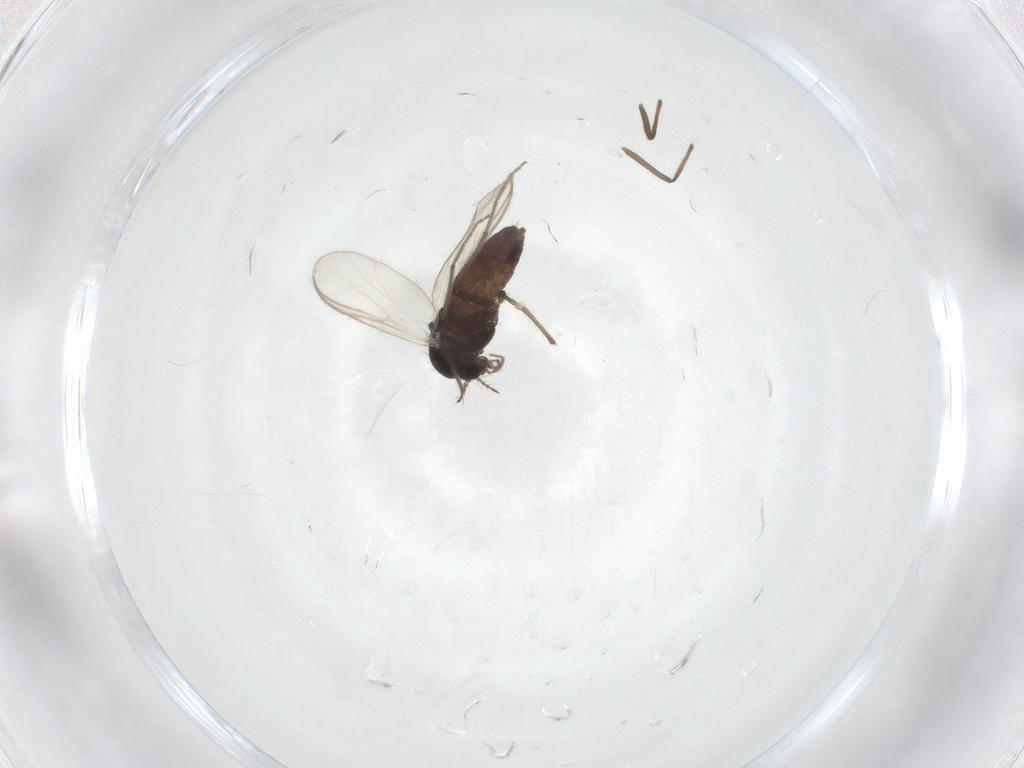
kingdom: Animalia
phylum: Arthropoda
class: Insecta
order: Diptera
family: Chironomidae
